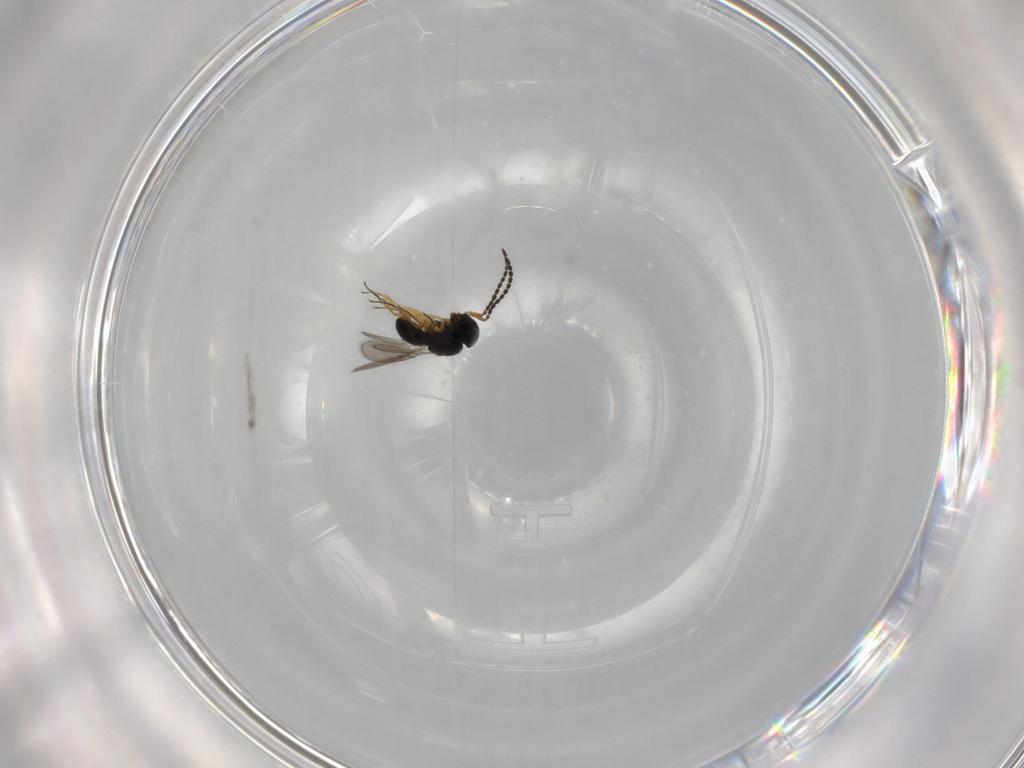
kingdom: Animalia
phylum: Arthropoda
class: Insecta
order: Hymenoptera
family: Scelionidae
